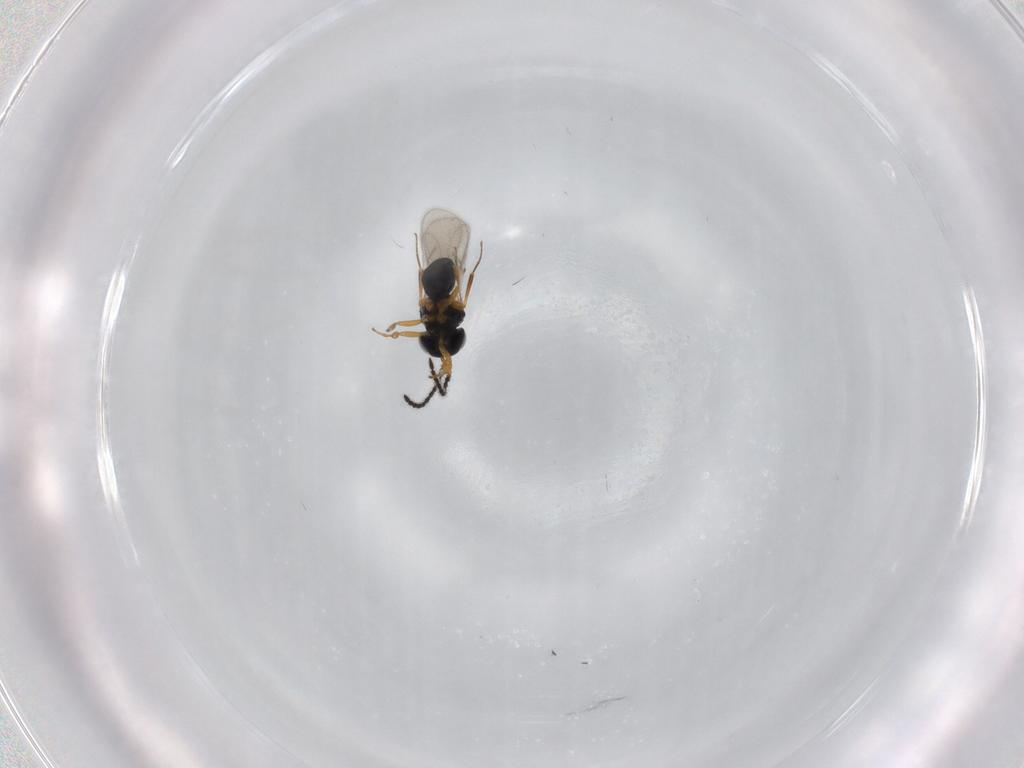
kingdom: Animalia
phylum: Arthropoda
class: Insecta
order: Hymenoptera
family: Scelionidae
